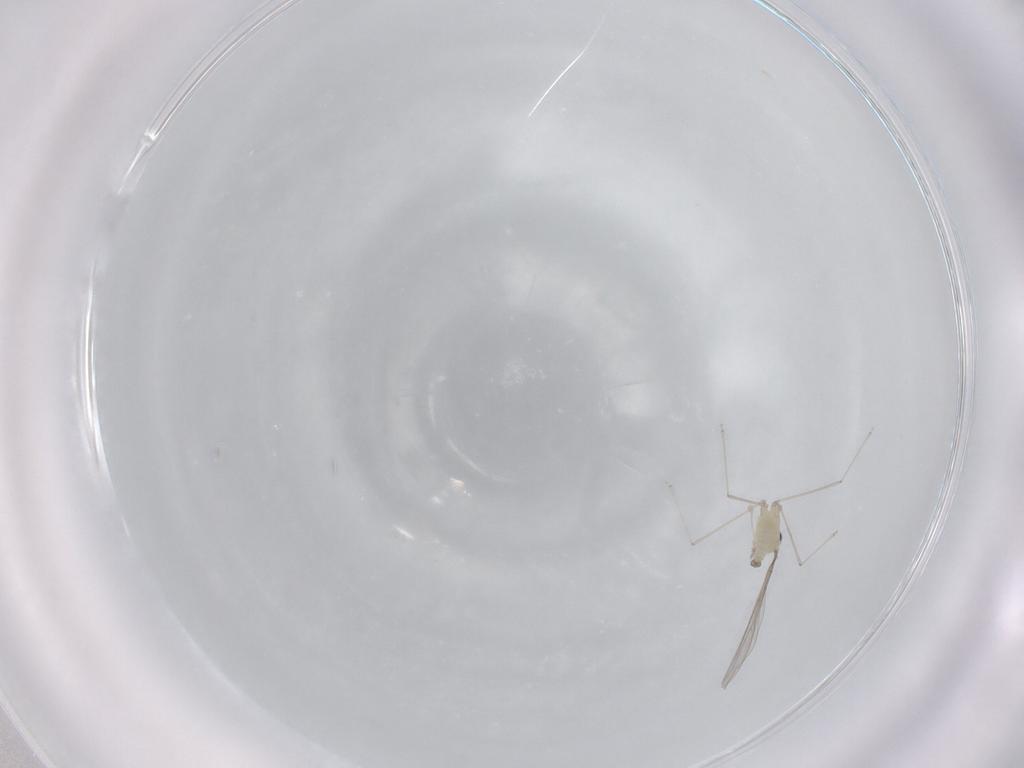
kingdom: Animalia
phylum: Arthropoda
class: Insecta
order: Diptera
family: Cecidomyiidae
